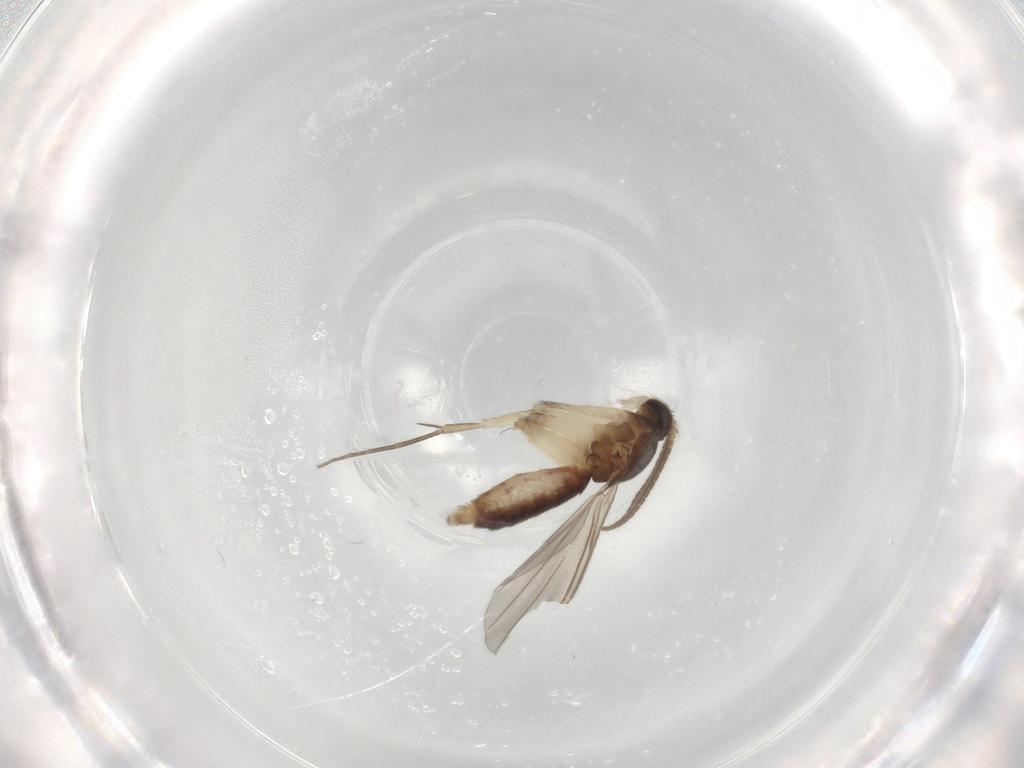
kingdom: Animalia
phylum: Arthropoda
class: Insecta
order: Diptera
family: Mycetophilidae
